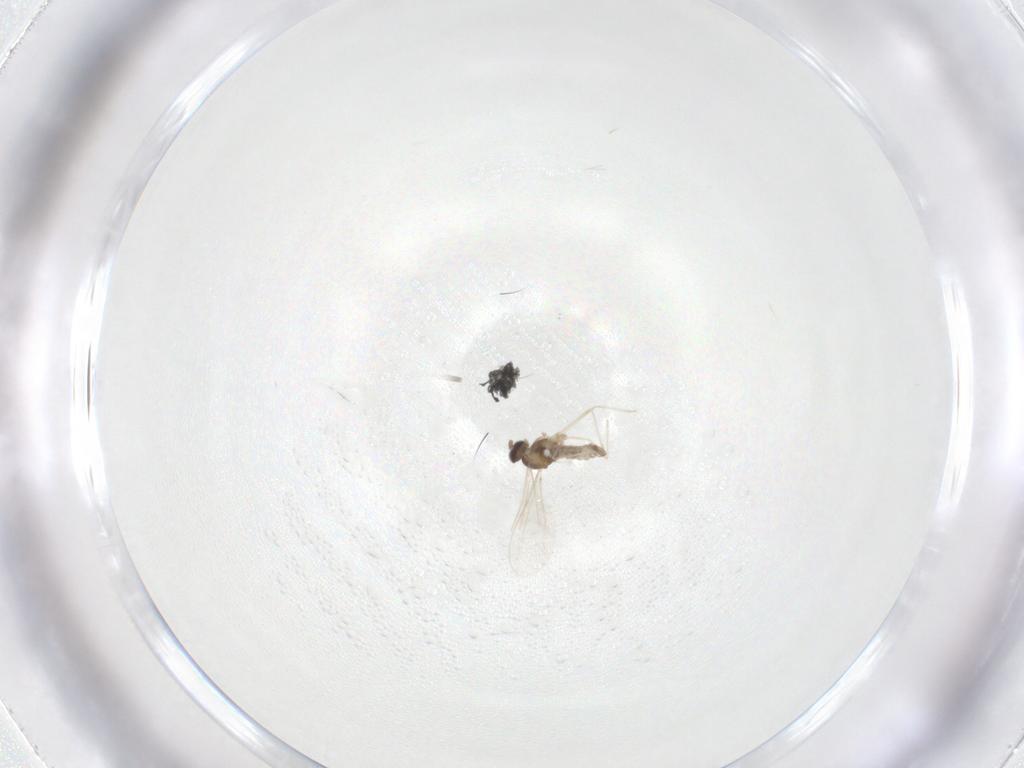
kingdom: Animalia
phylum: Arthropoda
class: Insecta
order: Diptera
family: Cecidomyiidae
